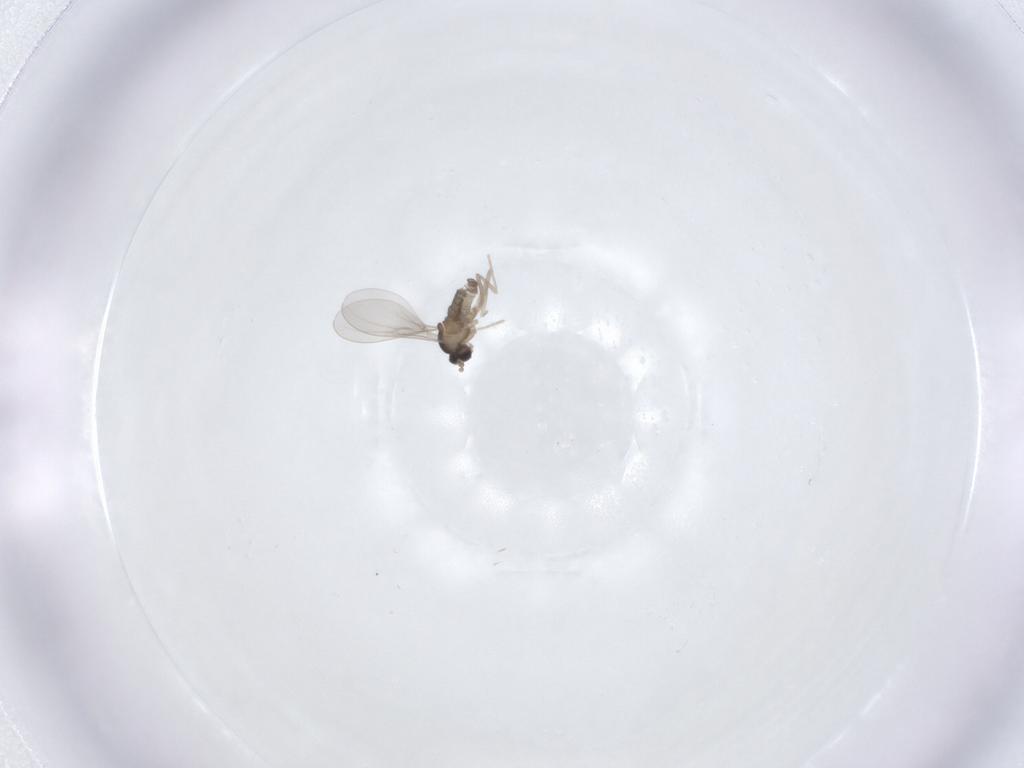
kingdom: Animalia
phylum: Arthropoda
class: Insecta
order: Diptera
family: Cecidomyiidae
